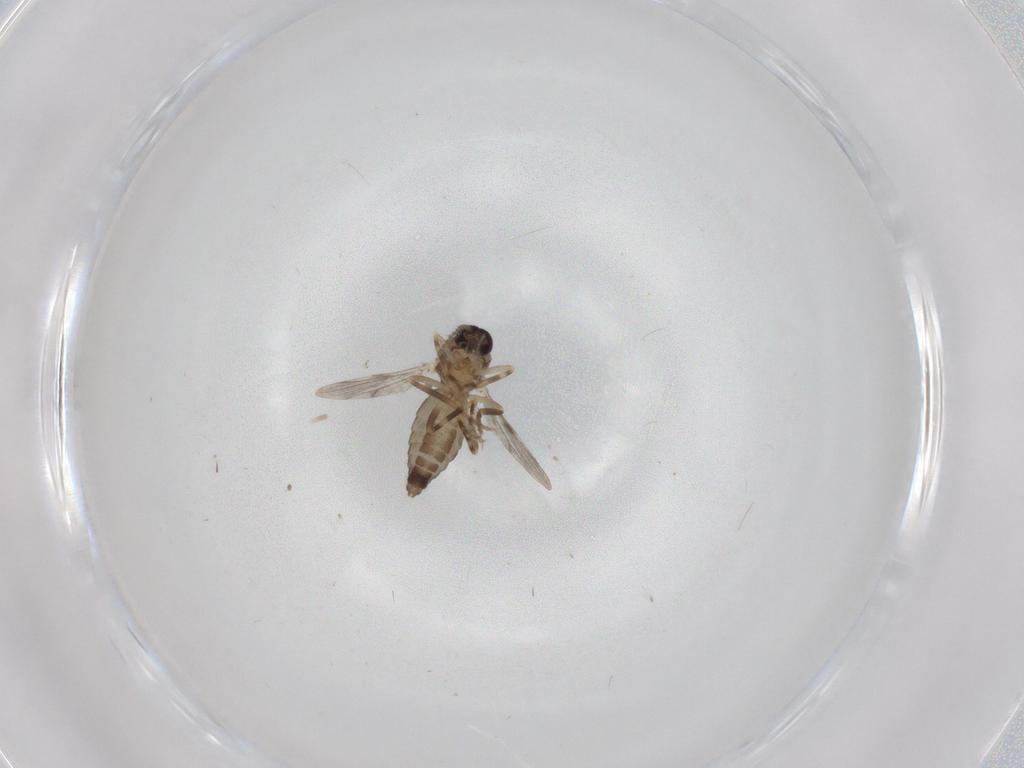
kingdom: Animalia
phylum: Arthropoda
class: Insecta
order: Diptera
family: Ceratopogonidae
